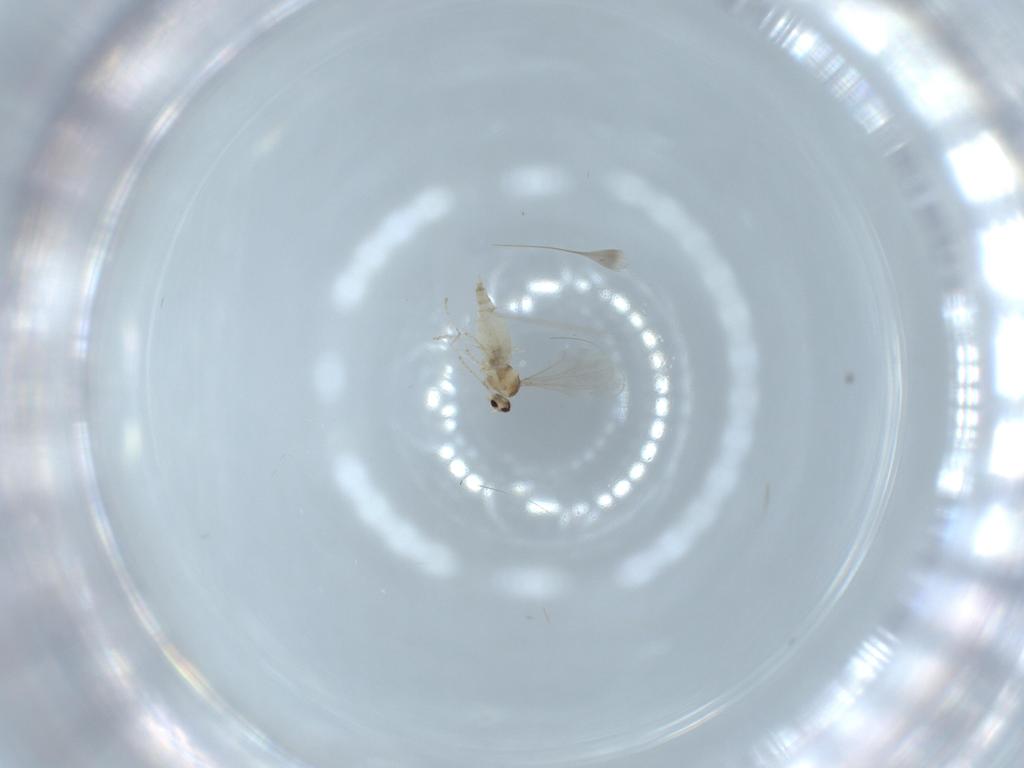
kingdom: Animalia
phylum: Arthropoda
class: Insecta
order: Diptera
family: Cecidomyiidae
